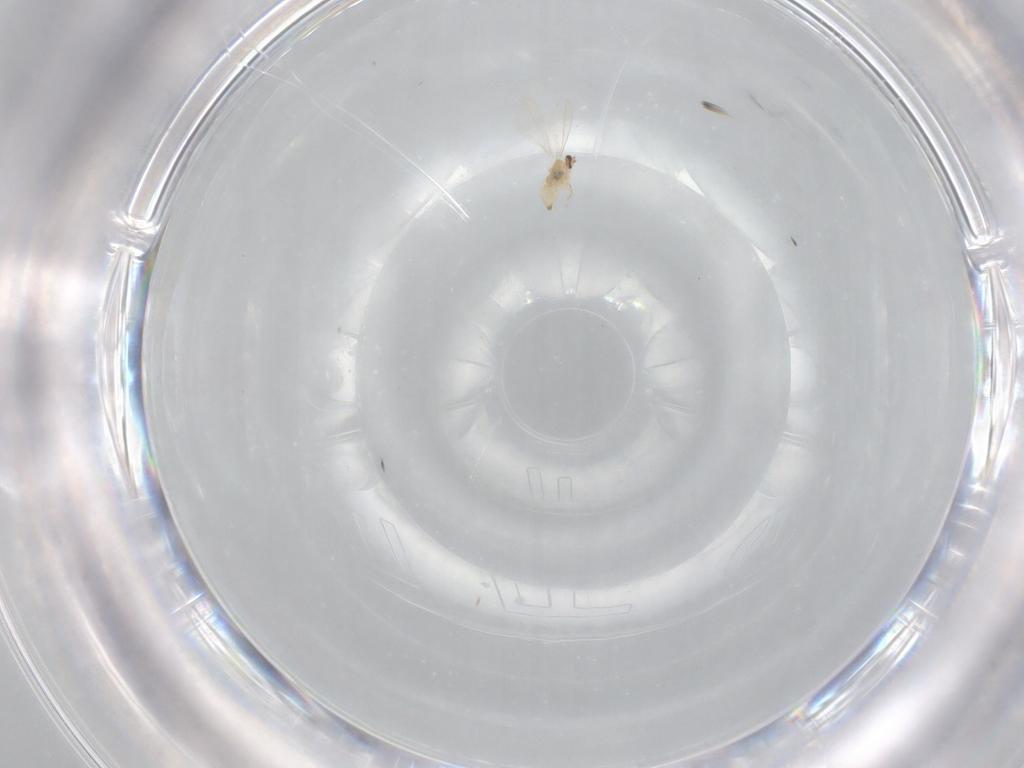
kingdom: Animalia
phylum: Arthropoda
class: Insecta
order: Diptera
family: Cecidomyiidae
